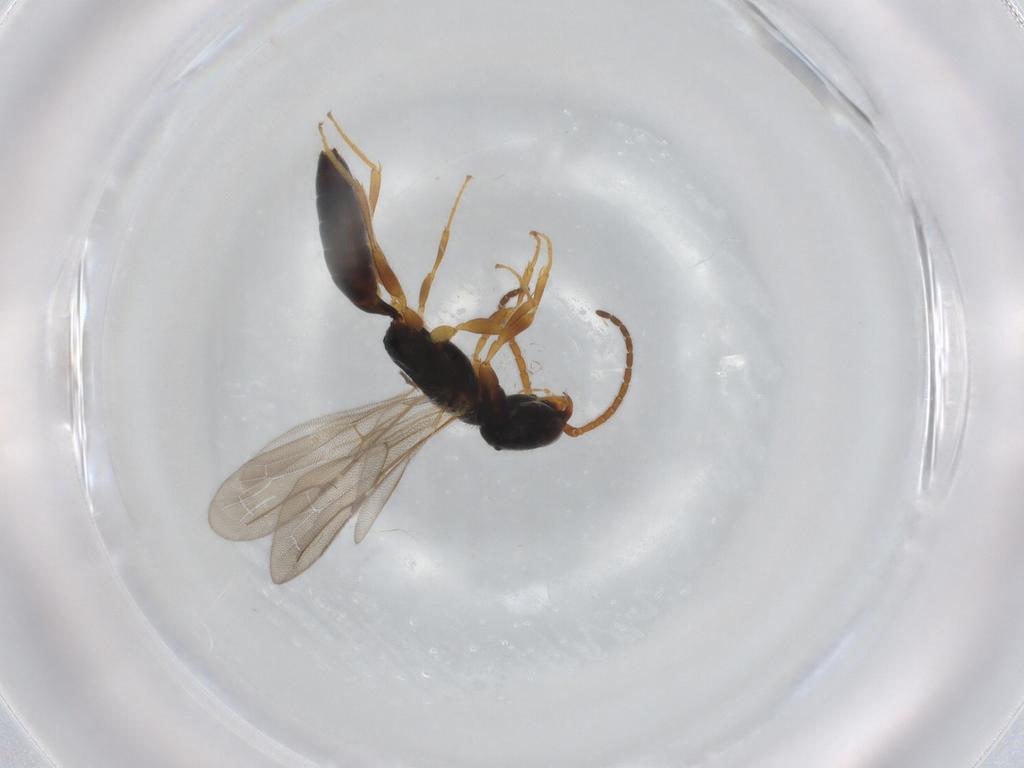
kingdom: Animalia
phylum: Arthropoda
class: Insecta
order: Hymenoptera
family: Bethylidae
